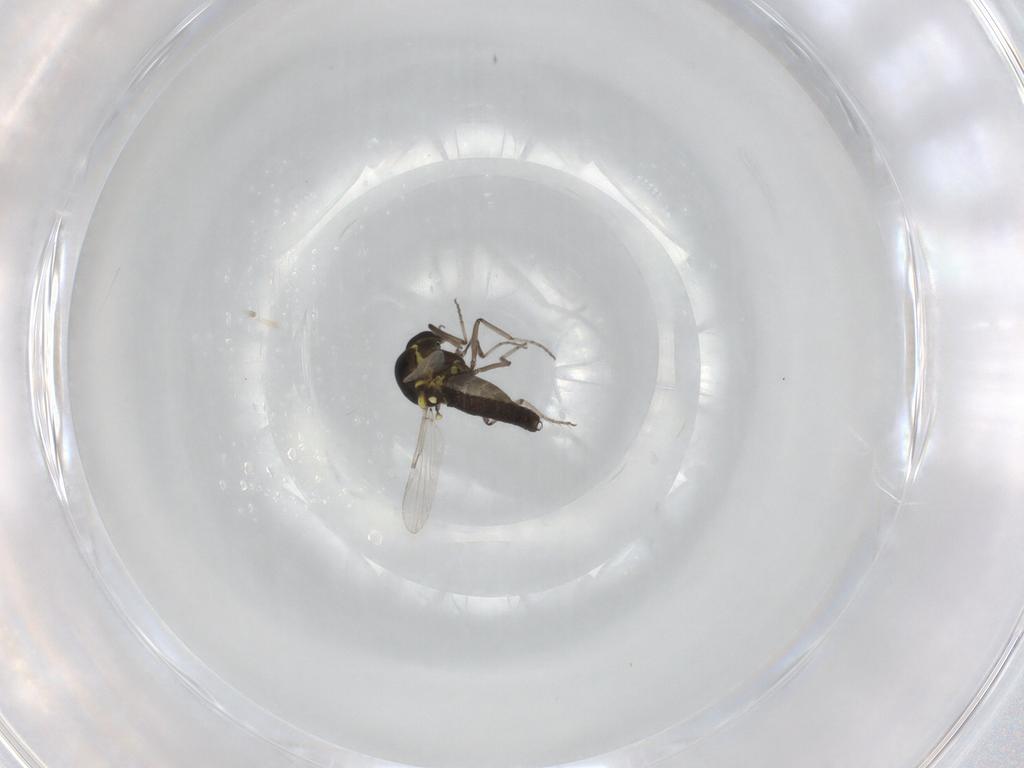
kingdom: Animalia
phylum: Arthropoda
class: Insecta
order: Diptera
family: Ceratopogonidae
